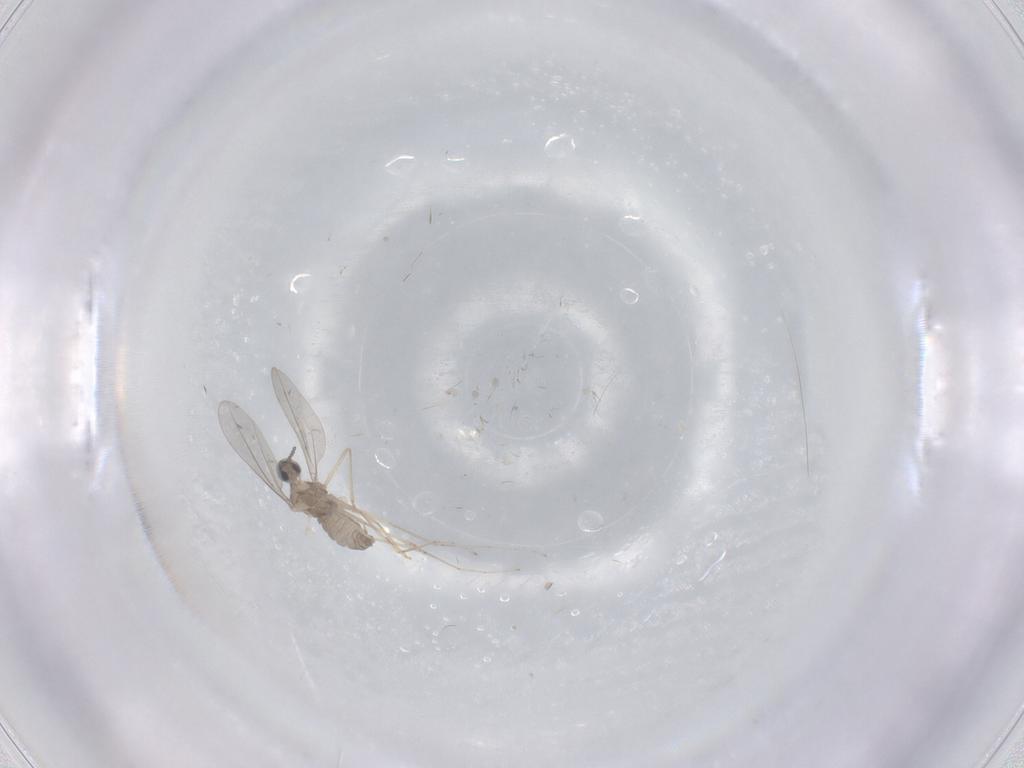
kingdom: Animalia
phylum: Arthropoda
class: Insecta
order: Diptera
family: Cecidomyiidae
